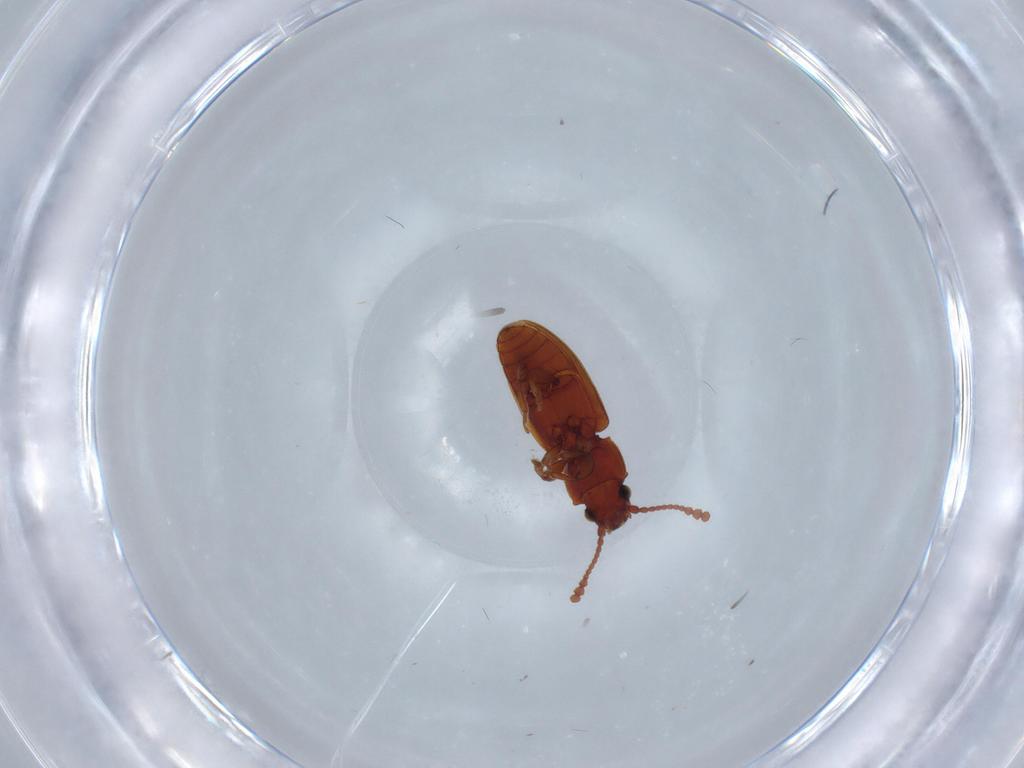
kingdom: Animalia
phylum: Arthropoda
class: Insecta
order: Coleoptera
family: Silvanidae
